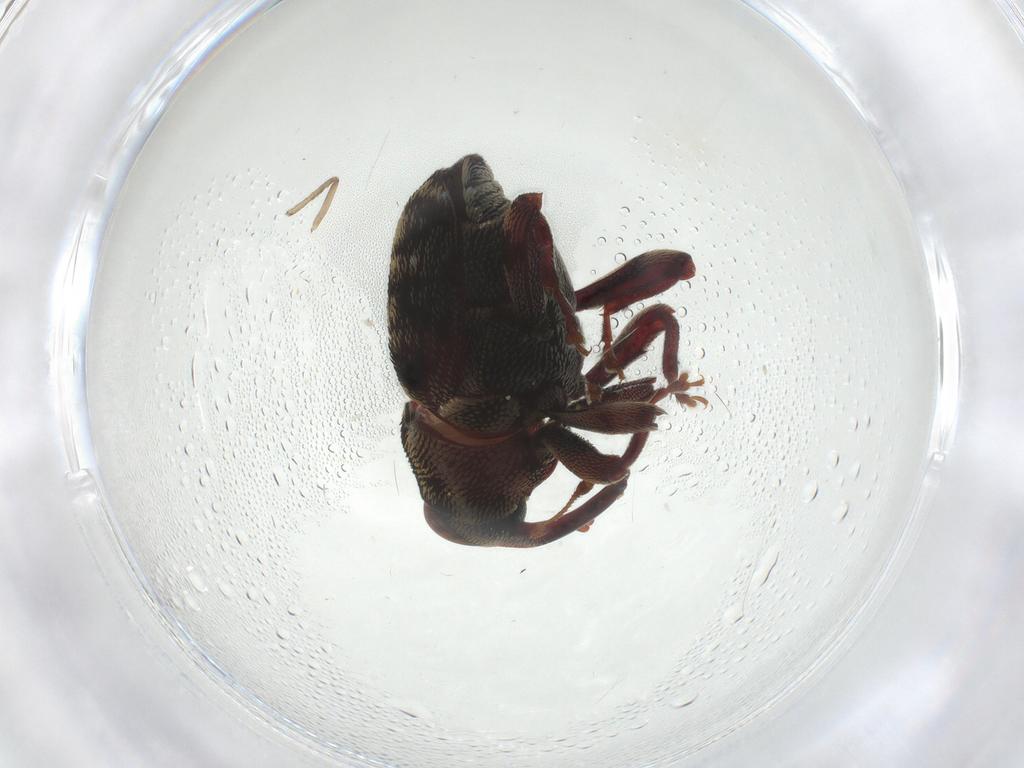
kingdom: Animalia
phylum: Arthropoda
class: Insecta
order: Coleoptera
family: Curculionidae
